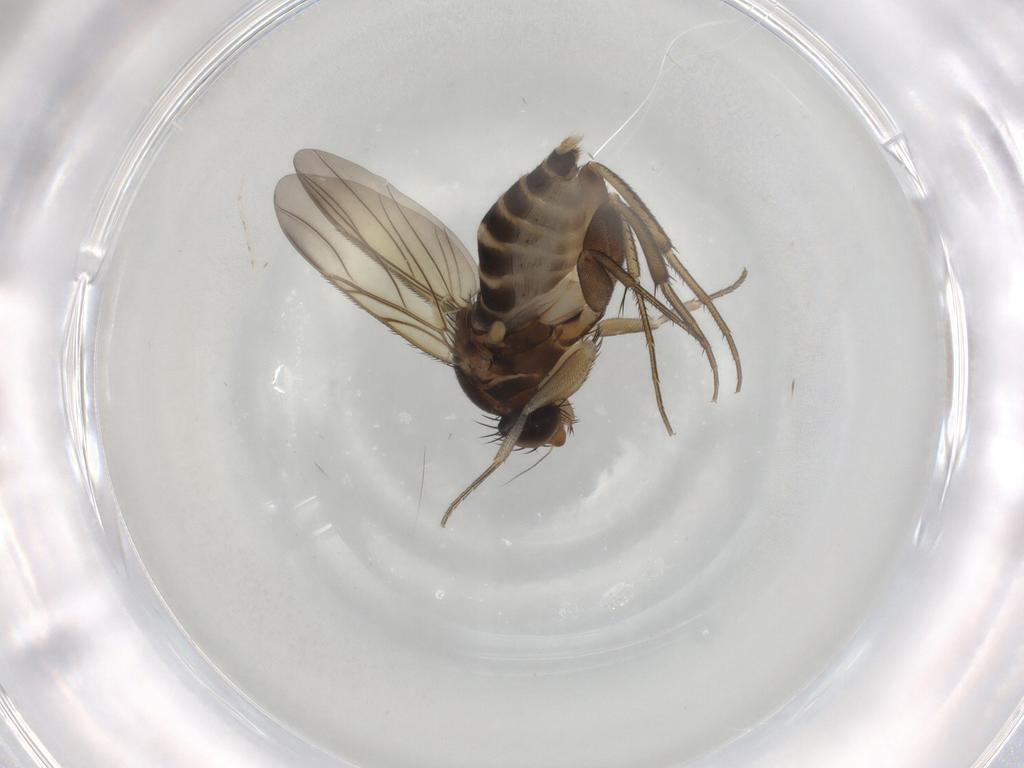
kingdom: Animalia
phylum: Arthropoda
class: Insecta
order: Diptera
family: Phoridae
